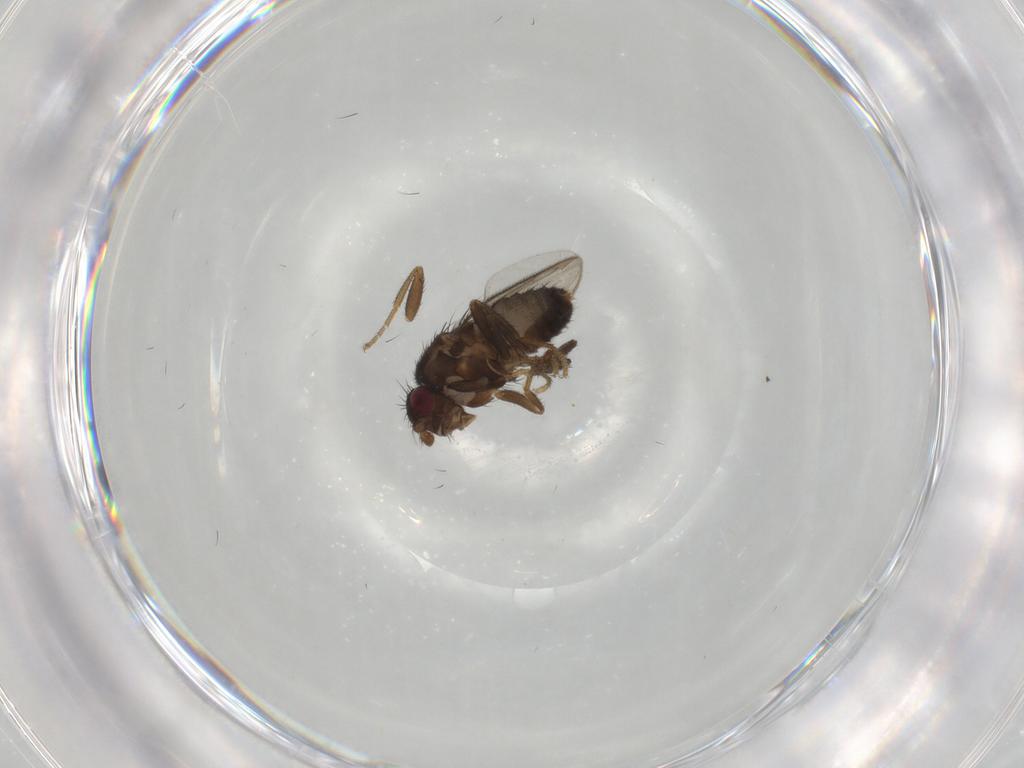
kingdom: Animalia
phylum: Arthropoda
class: Insecta
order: Diptera
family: Sphaeroceridae
